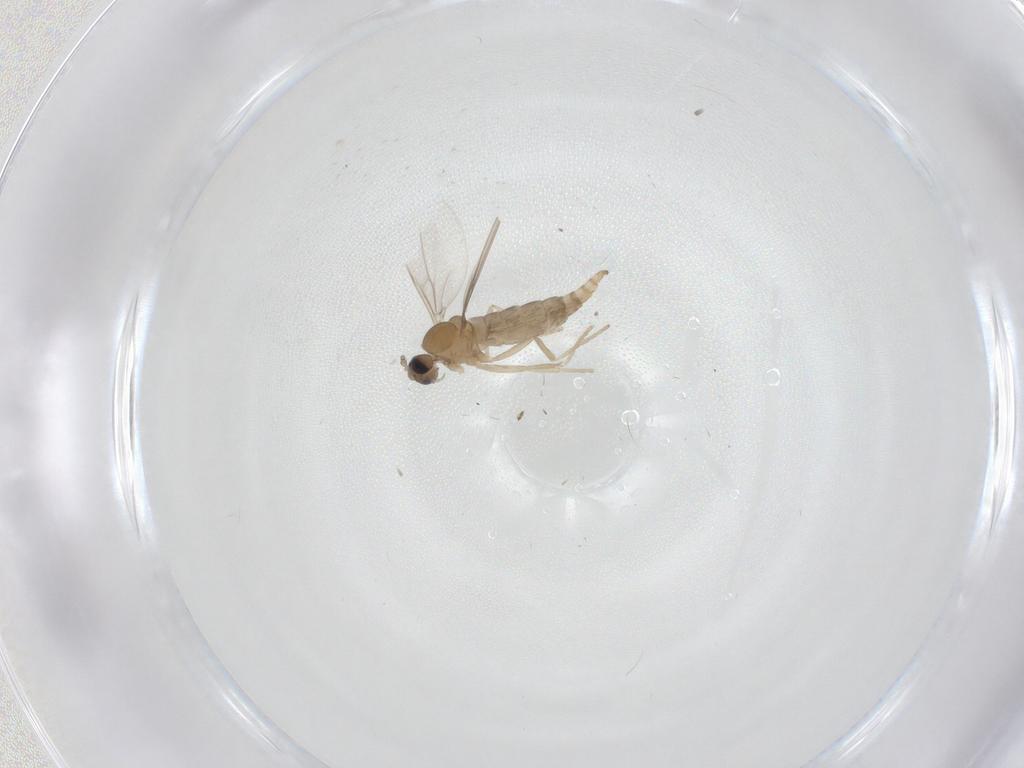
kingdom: Animalia
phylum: Arthropoda
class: Insecta
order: Diptera
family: Cecidomyiidae
